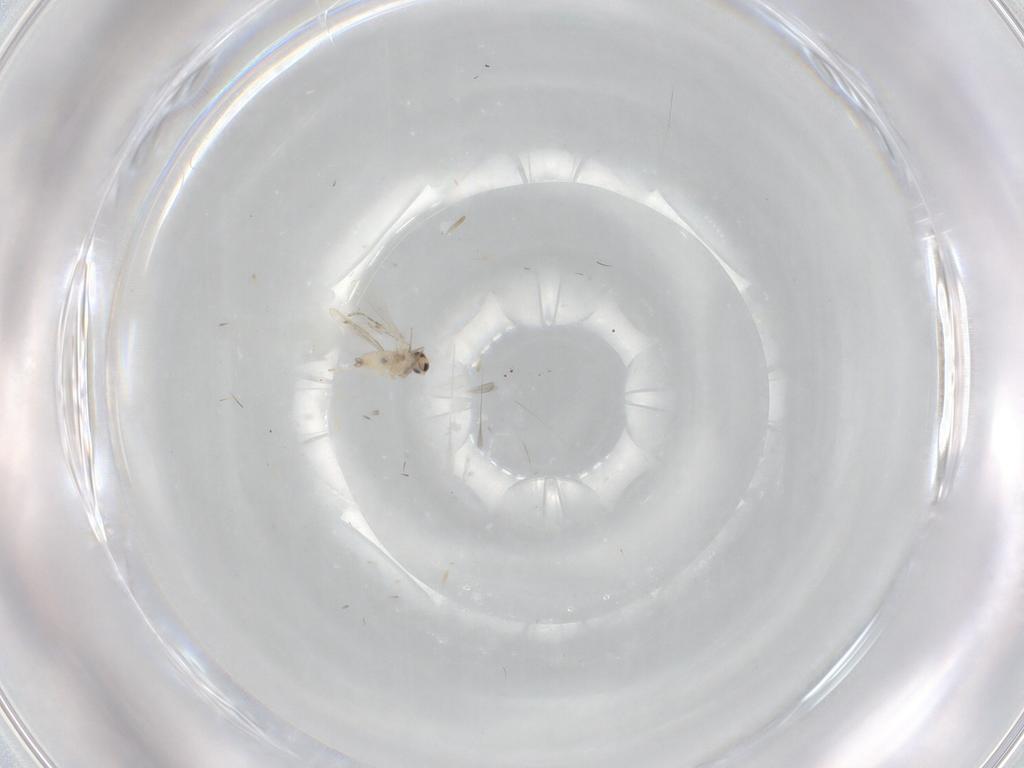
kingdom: Animalia
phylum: Arthropoda
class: Insecta
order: Diptera
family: Cecidomyiidae
